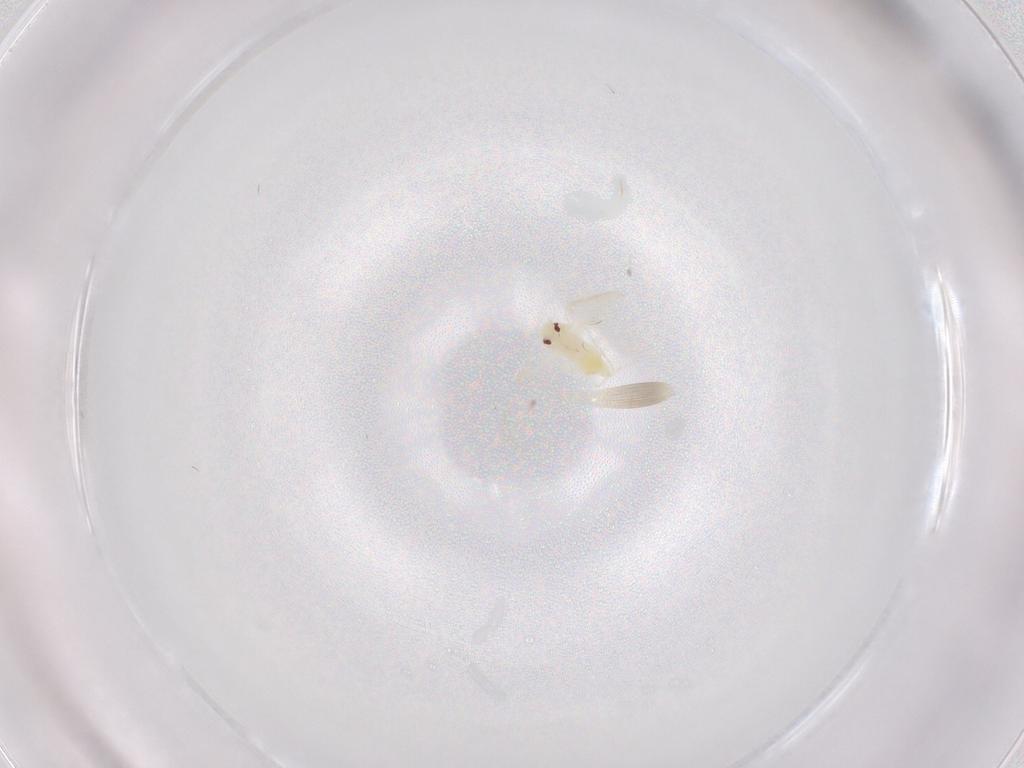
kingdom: Animalia
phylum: Arthropoda
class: Insecta
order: Hemiptera
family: Aleyrodidae
